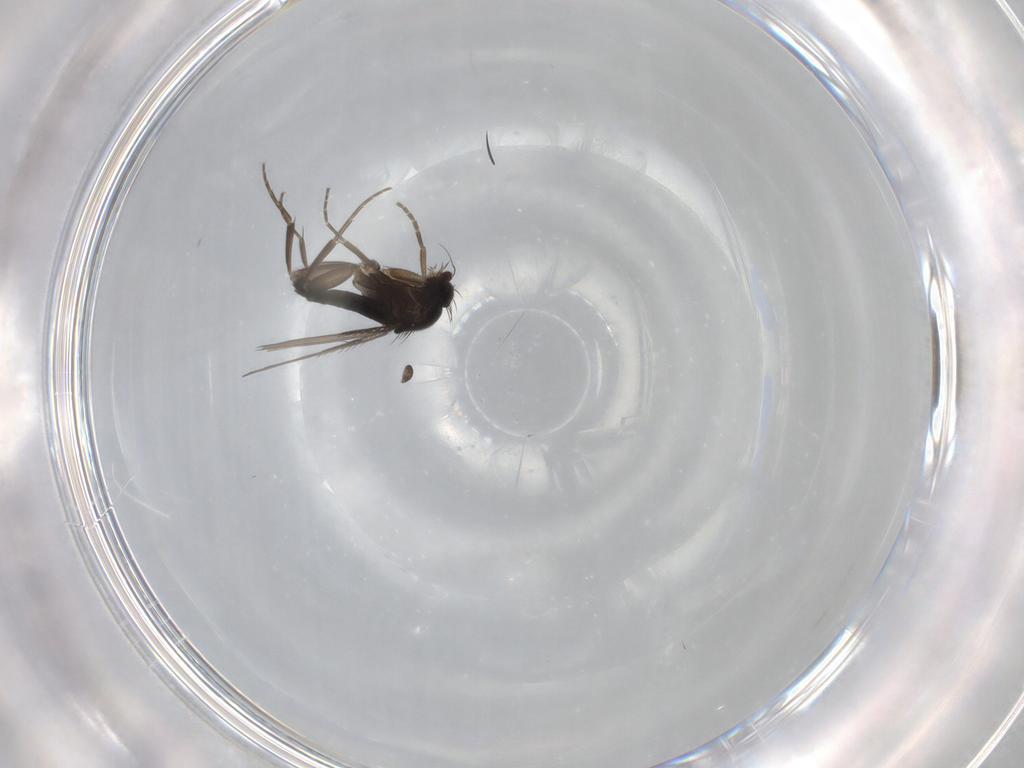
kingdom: Animalia
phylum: Arthropoda
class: Insecta
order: Diptera
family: Phoridae
